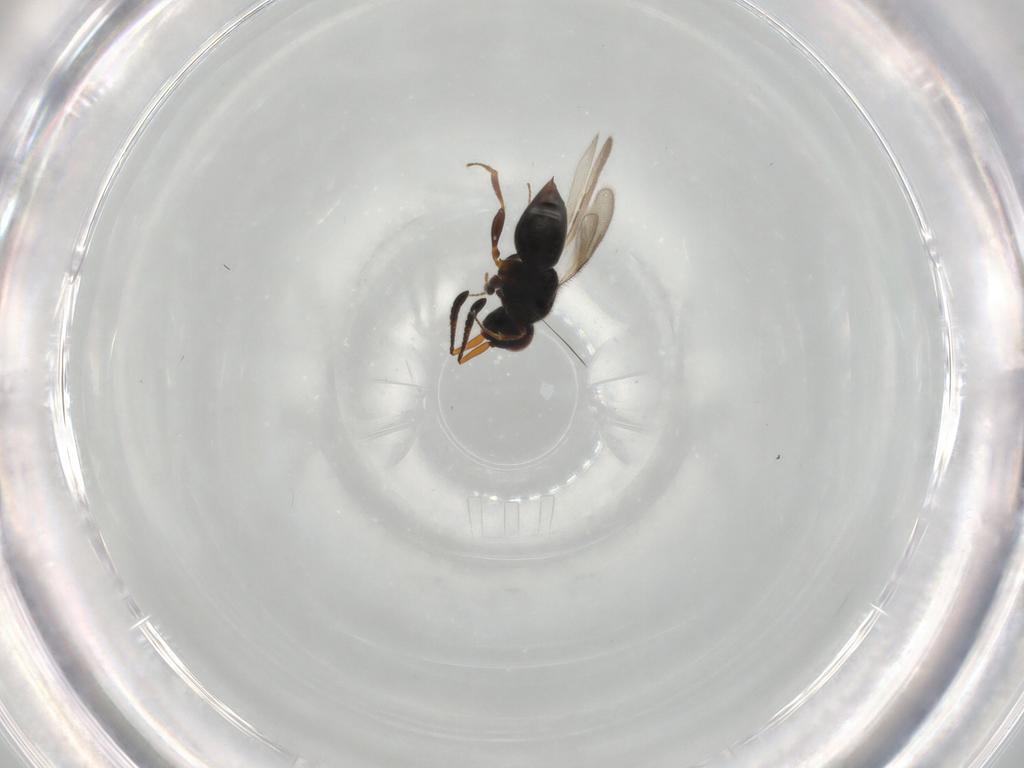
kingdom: Animalia
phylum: Arthropoda
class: Insecta
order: Hymenoptera
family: Ceraphronidae
